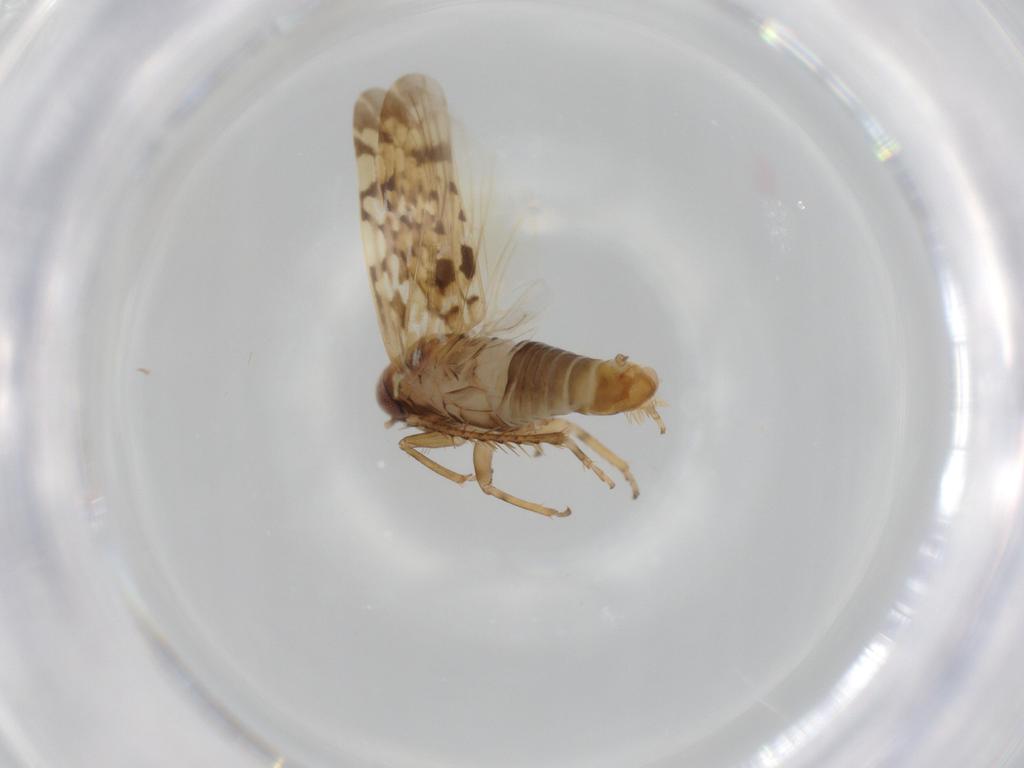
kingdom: Animalia
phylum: Arthropoda
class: Insecta
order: Hemiptera
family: Cicadellidae
